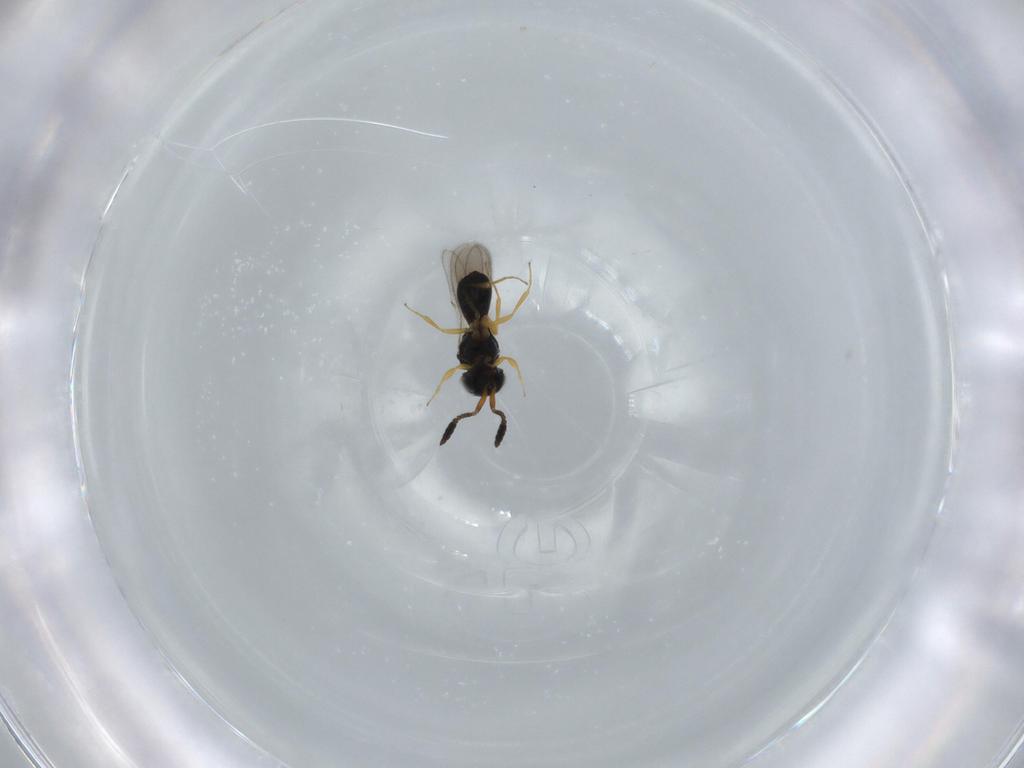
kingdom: Animalia
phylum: Arthropoda
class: Insecta
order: Hymenoptera
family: Scelionidae
